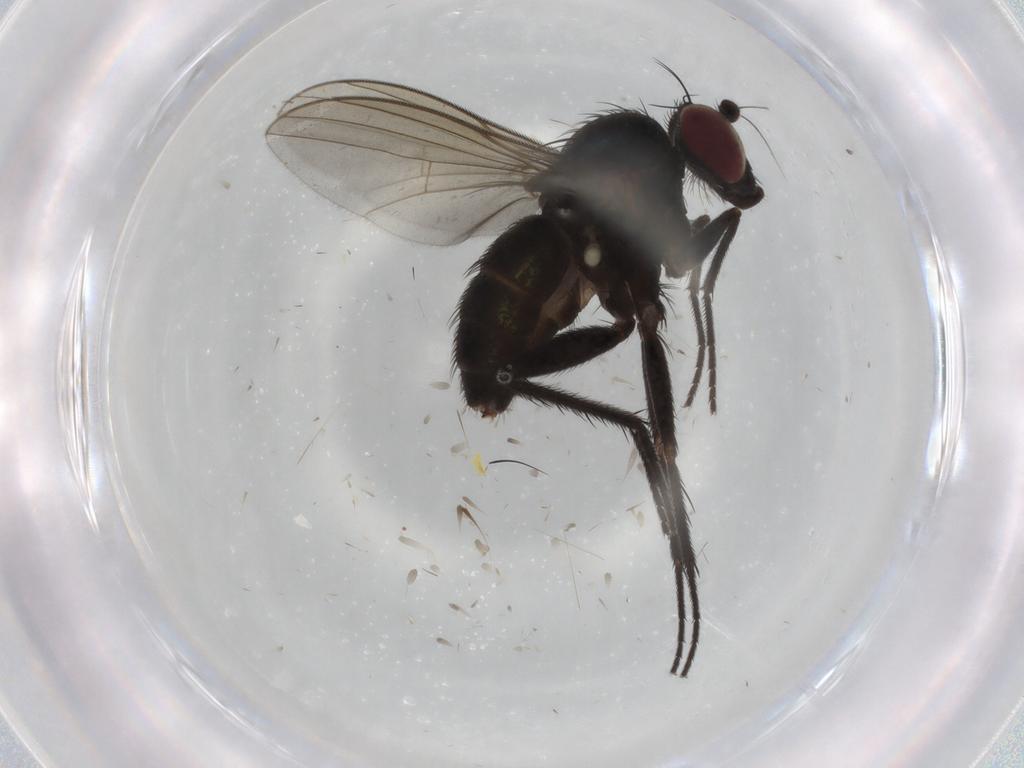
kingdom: Animalia
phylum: Arthropoda
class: Insecta
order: Diptera
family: Dolichopodidae
